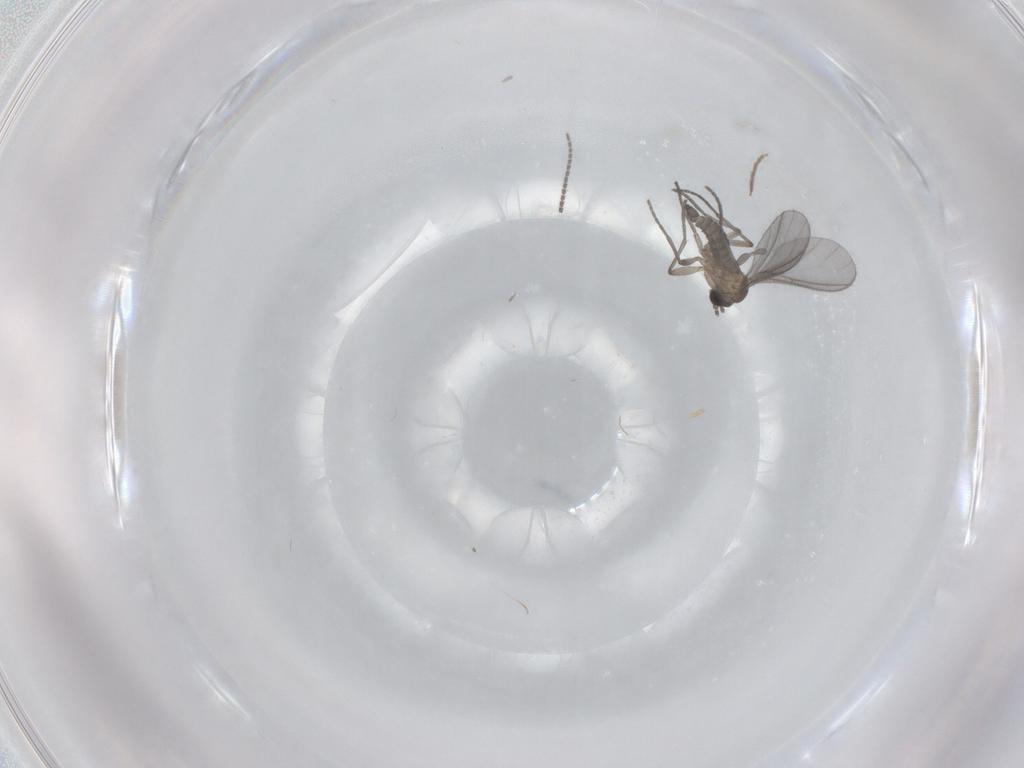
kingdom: Animalia
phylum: Arthropoda
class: Insecta
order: Diptera
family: Sciaridae
